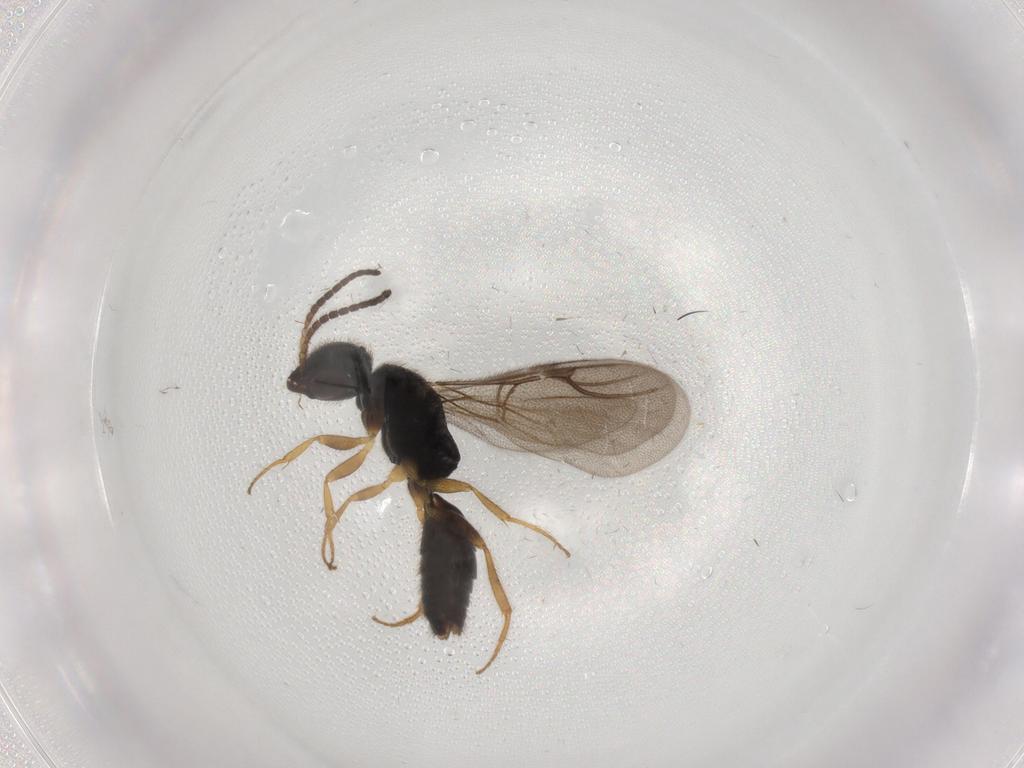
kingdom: Animalia
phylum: Arthropoda
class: Insecta
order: Hymenoptera
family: Bethylidae
